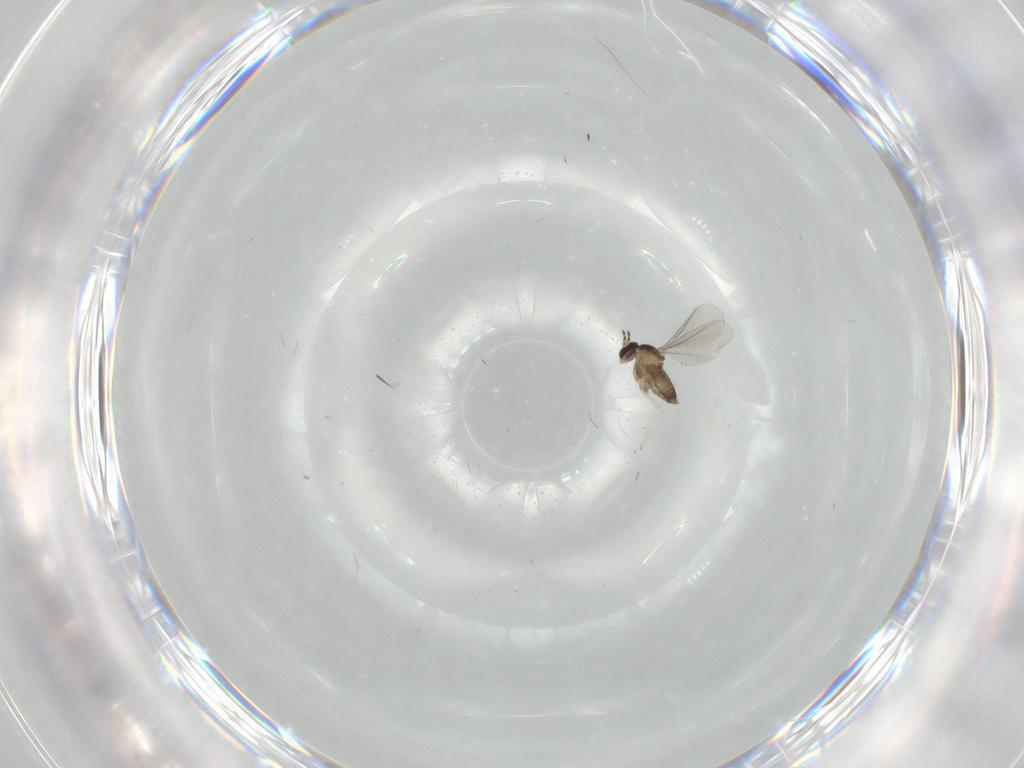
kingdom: Animalia
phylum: Arthropoda
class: Insecta
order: Diptera
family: Cecidomyiidae
